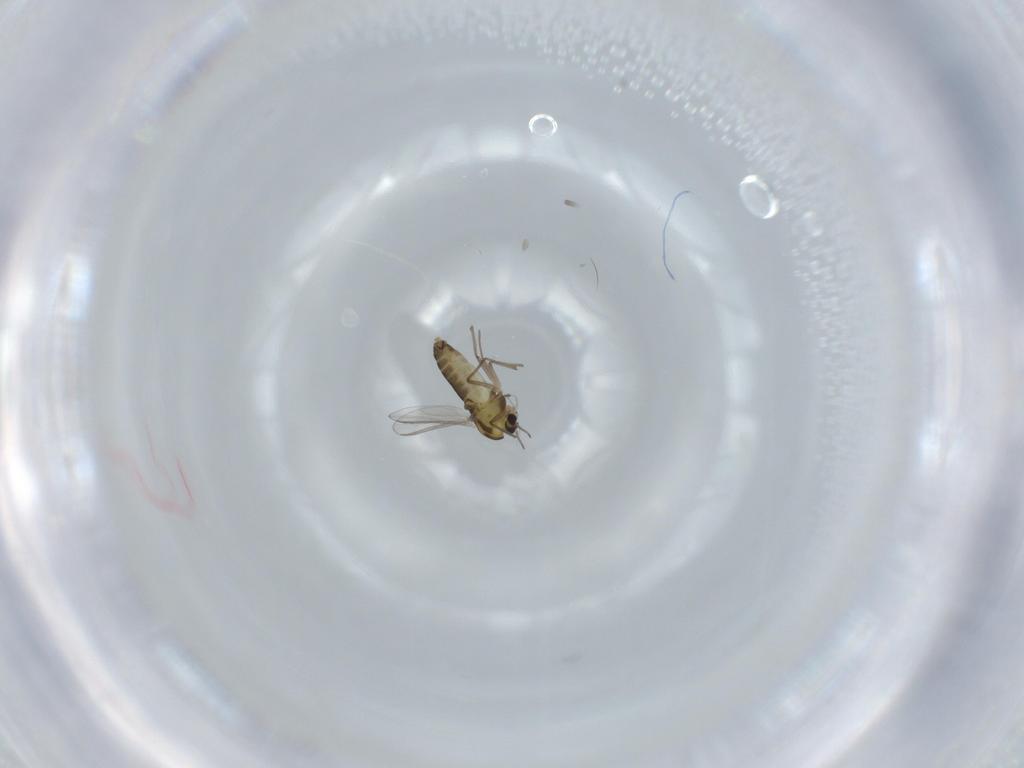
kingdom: Animalia
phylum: Arthropoda
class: Insecta
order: Diptera
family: Chironomidae
